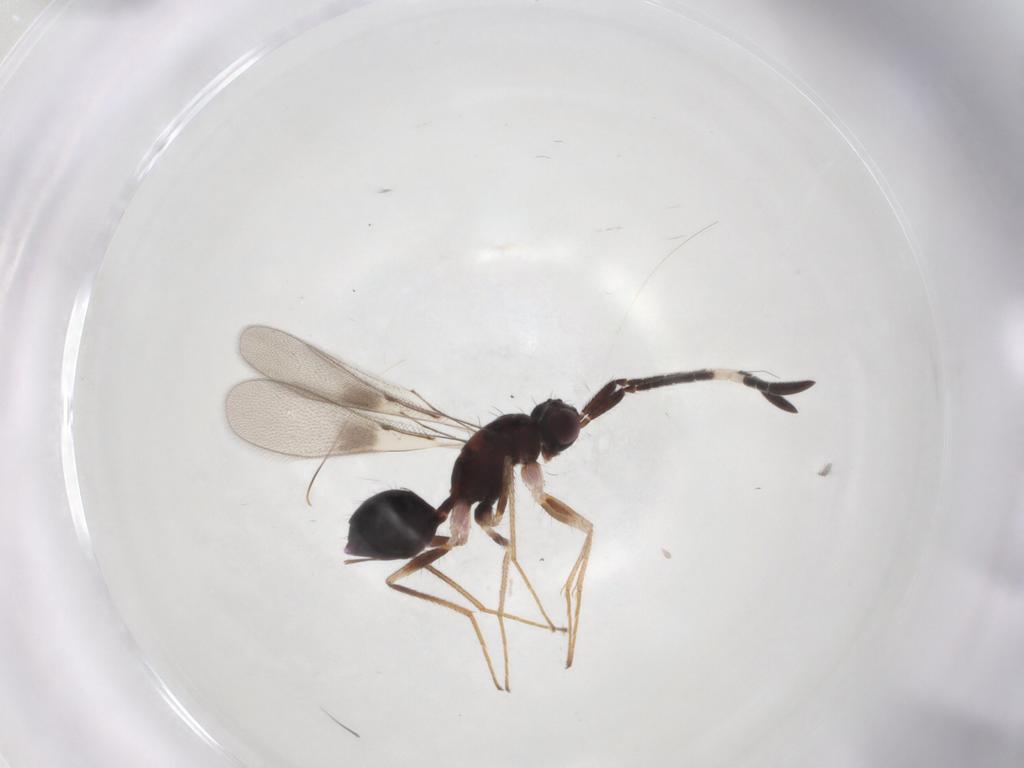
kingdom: Animalia
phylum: Arthropoda
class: Insecta
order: Hymenoptera
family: Mymaridae
